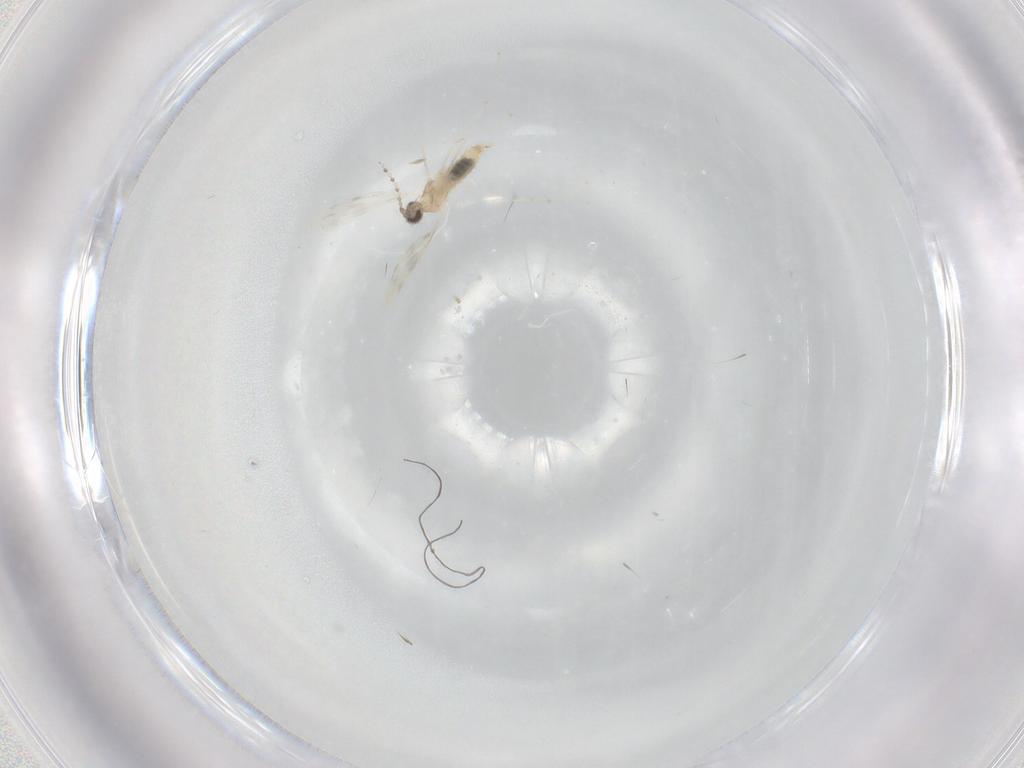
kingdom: Animalia
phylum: Arthropoda
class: Insecta
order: Diptera
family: Cecidomyiidae
